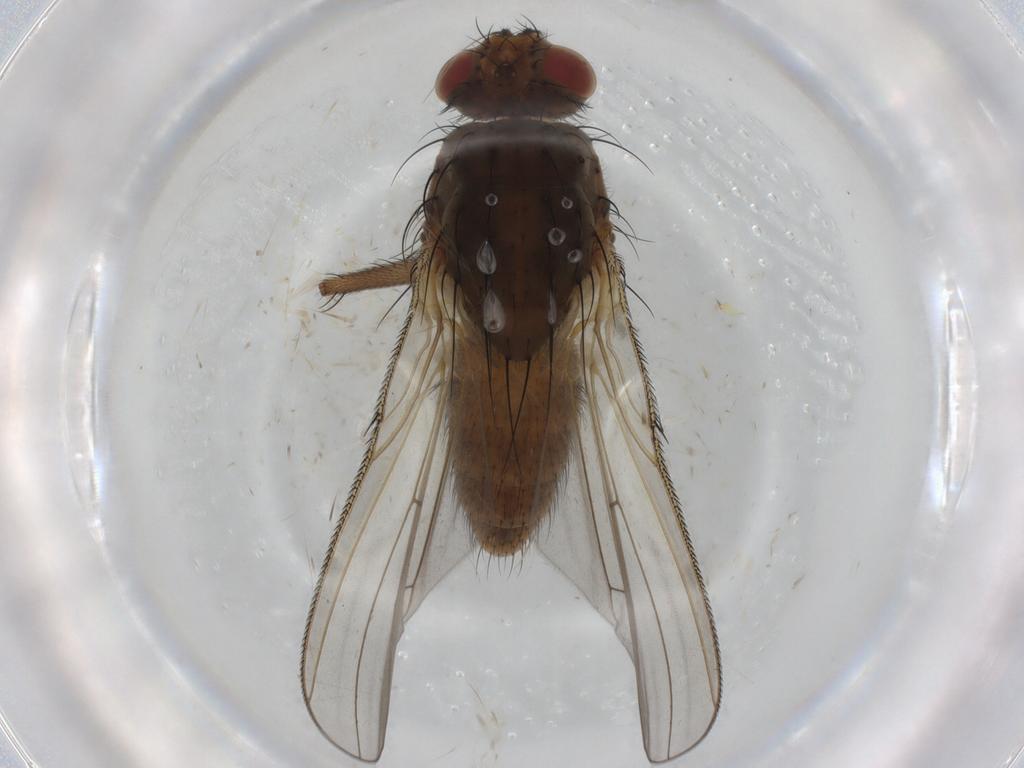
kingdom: Animalia
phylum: Arthropoda
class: Insecta
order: Diptera
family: Anthomyiidae
